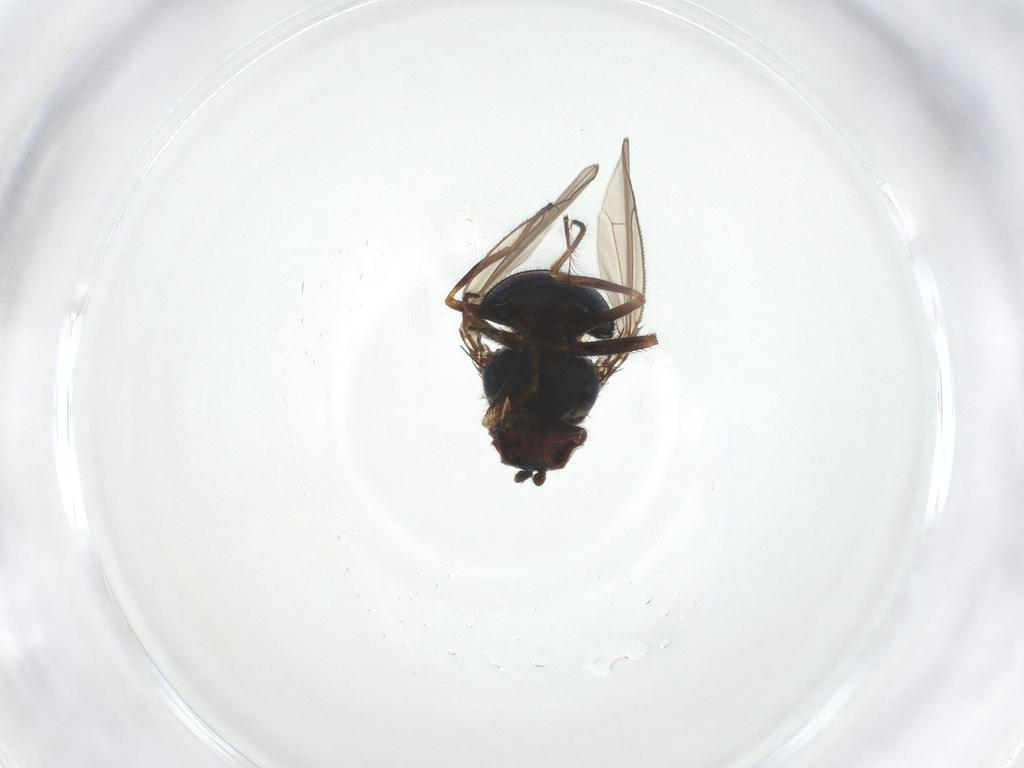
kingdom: Animalia
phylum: Arthropoda
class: Insecta
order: Diptera
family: Ephydridae
